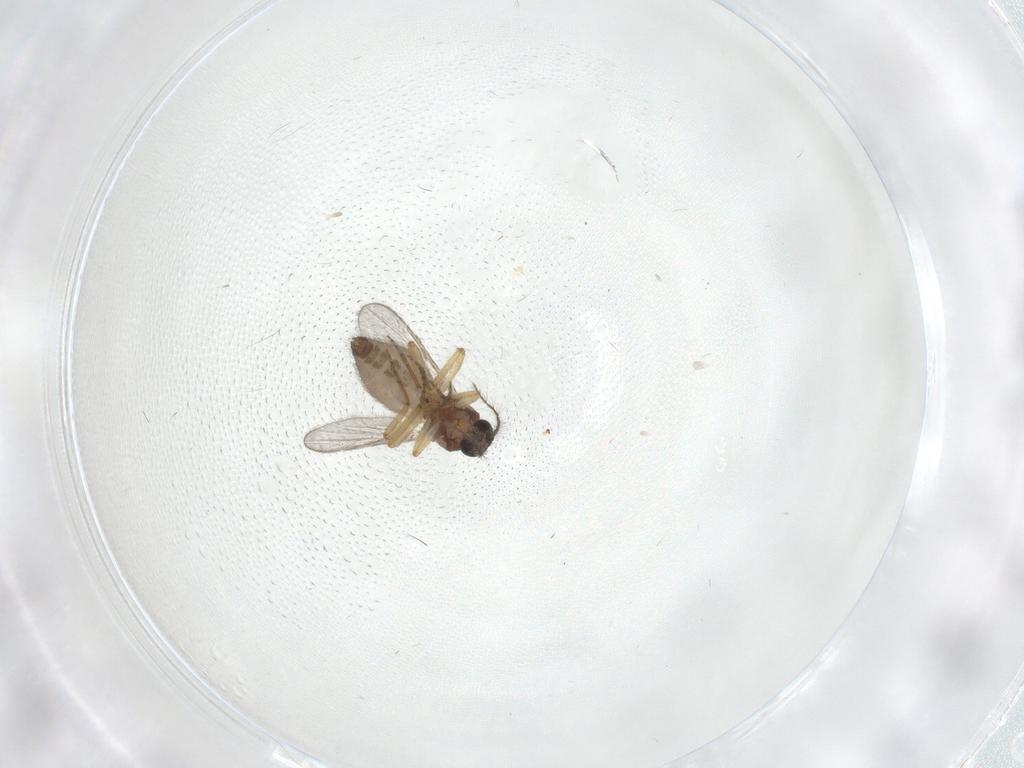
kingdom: Animalia
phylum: Arthropoda
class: Insecta
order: Diptera
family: Ceratopogonidae
